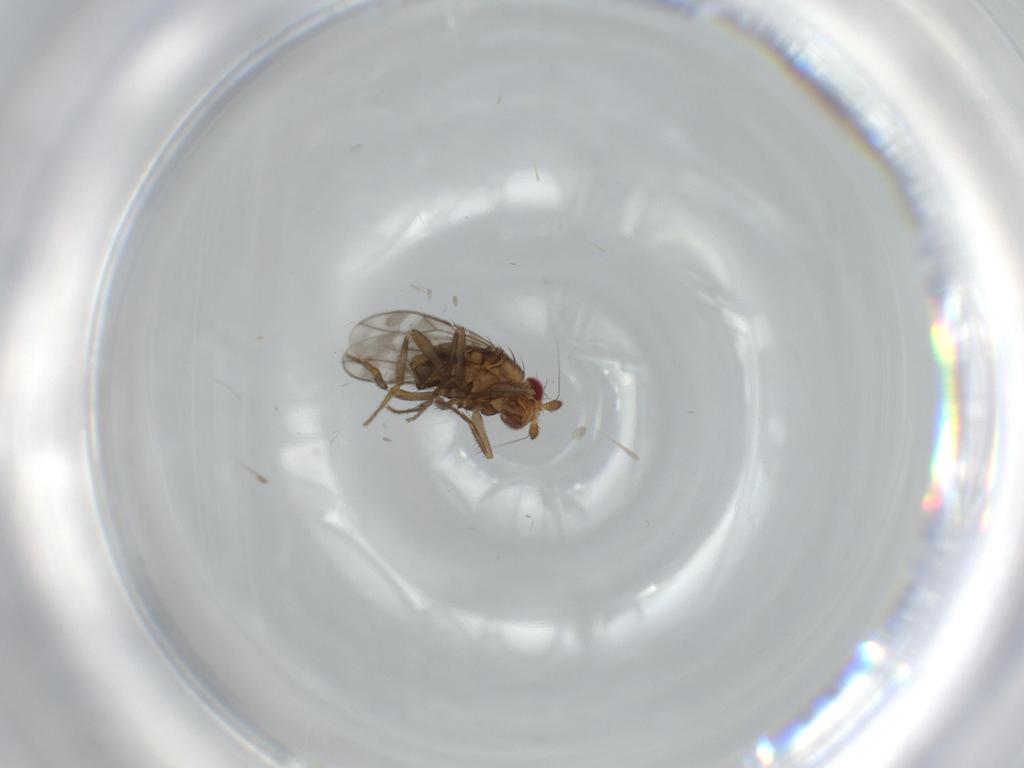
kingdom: Animalia
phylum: Arthropoda
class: Insecta
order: Diptera
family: Sphaeroceridae
